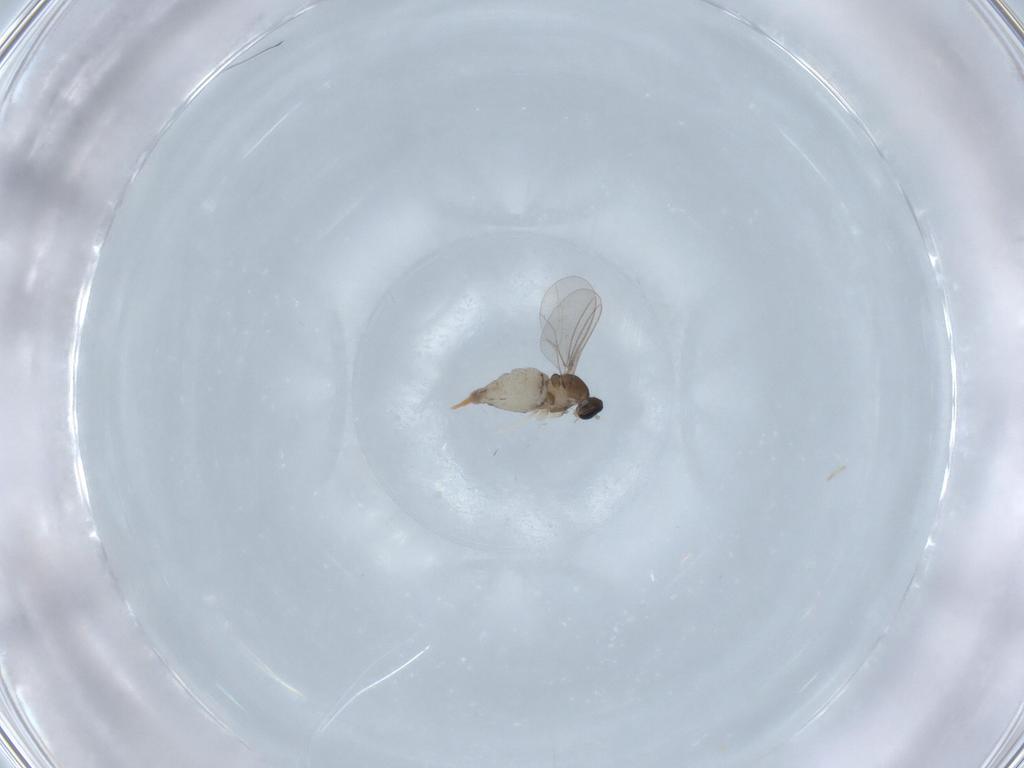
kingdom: Animalia
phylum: Arthropoda
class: Insecta
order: Diptera
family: Cecidomyiidae
